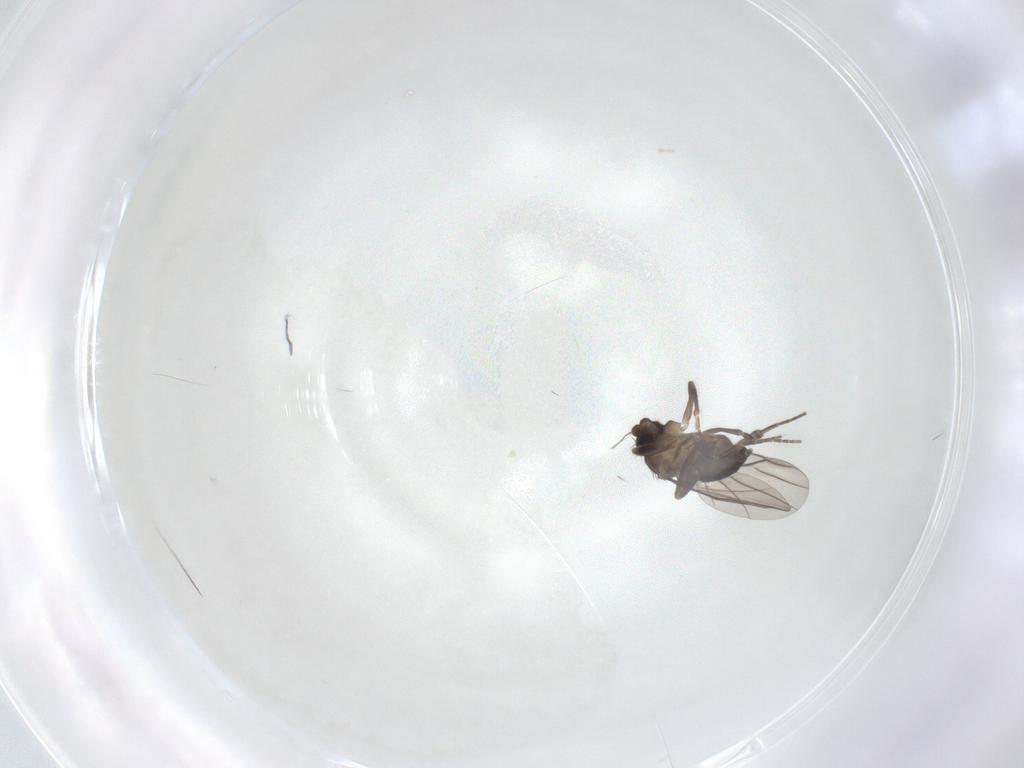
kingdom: Animalia
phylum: Arthropoda
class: Insecta
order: Diptera
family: Phoridae
